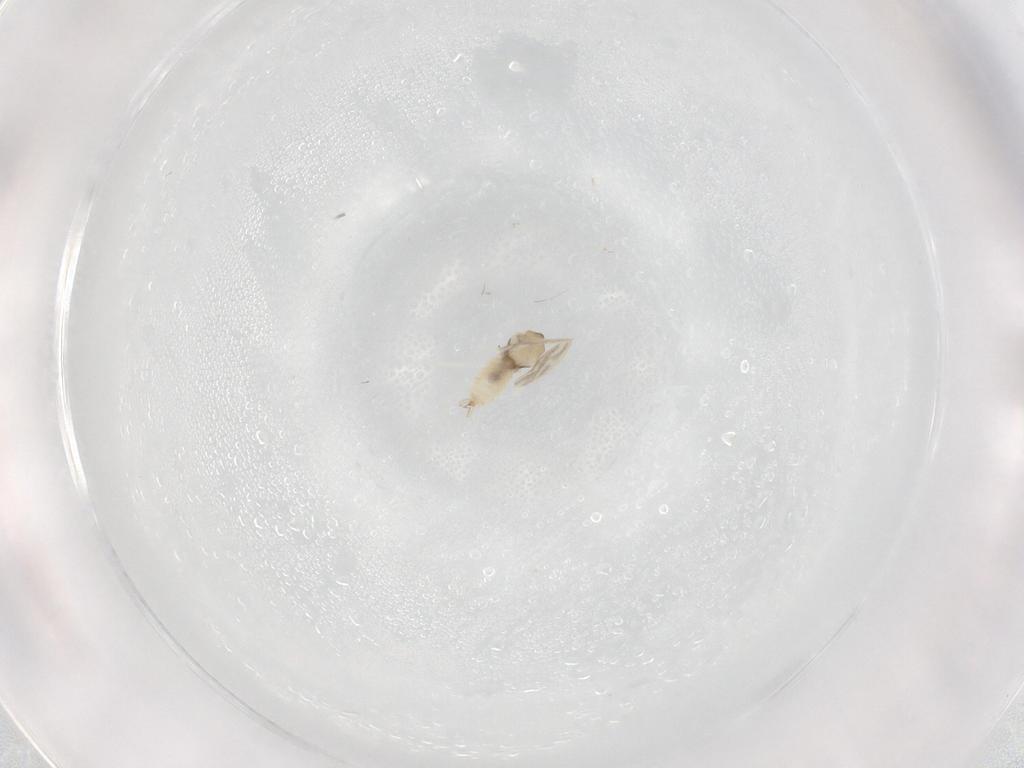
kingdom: Animalia
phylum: Arthropoda
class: Insecta
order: Diptera
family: Cecidomyiidae
